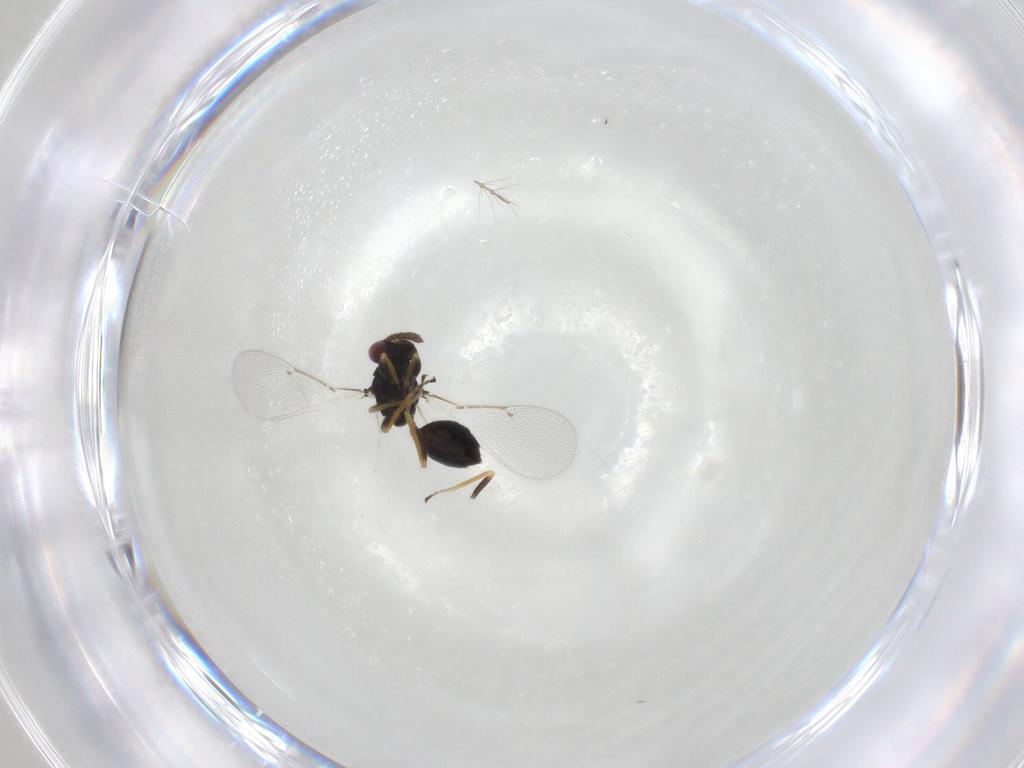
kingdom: Animalia
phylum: Arthropoda
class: Insecta
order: Hymenoptera
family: Eulophidae
